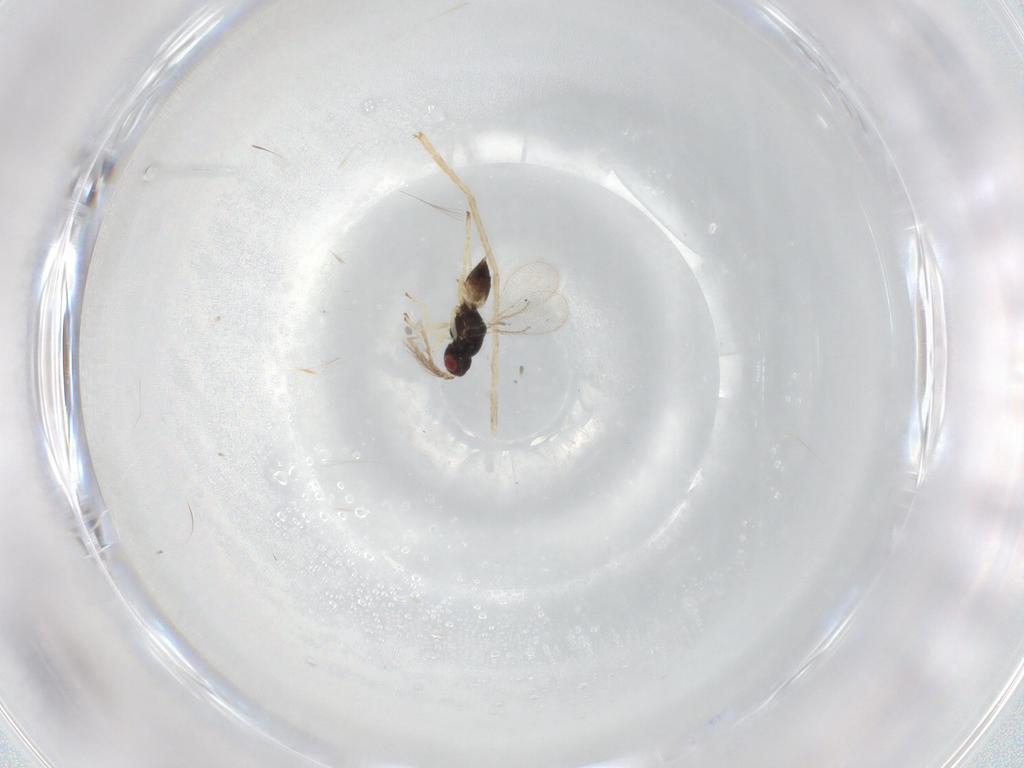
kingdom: Animalia
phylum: Arthropoda
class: Insecta
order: Hymenoptera
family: Eulophidae
